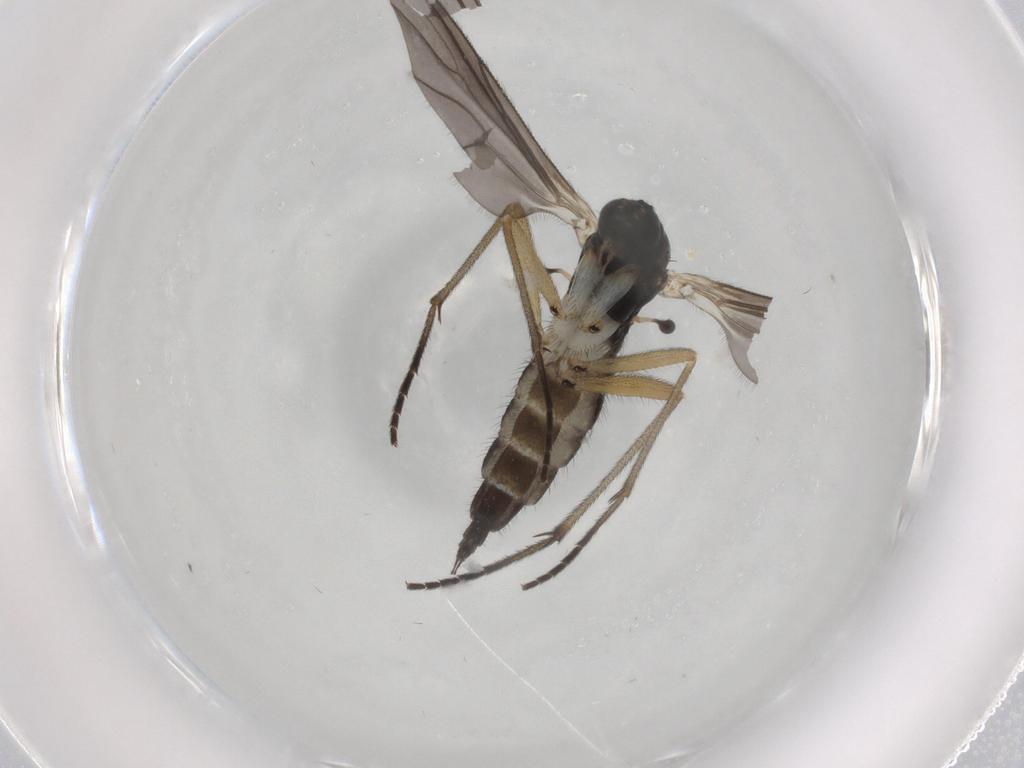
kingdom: Animalia
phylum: Arthropoda
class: Insecta
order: Diptera
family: Sciaridae
